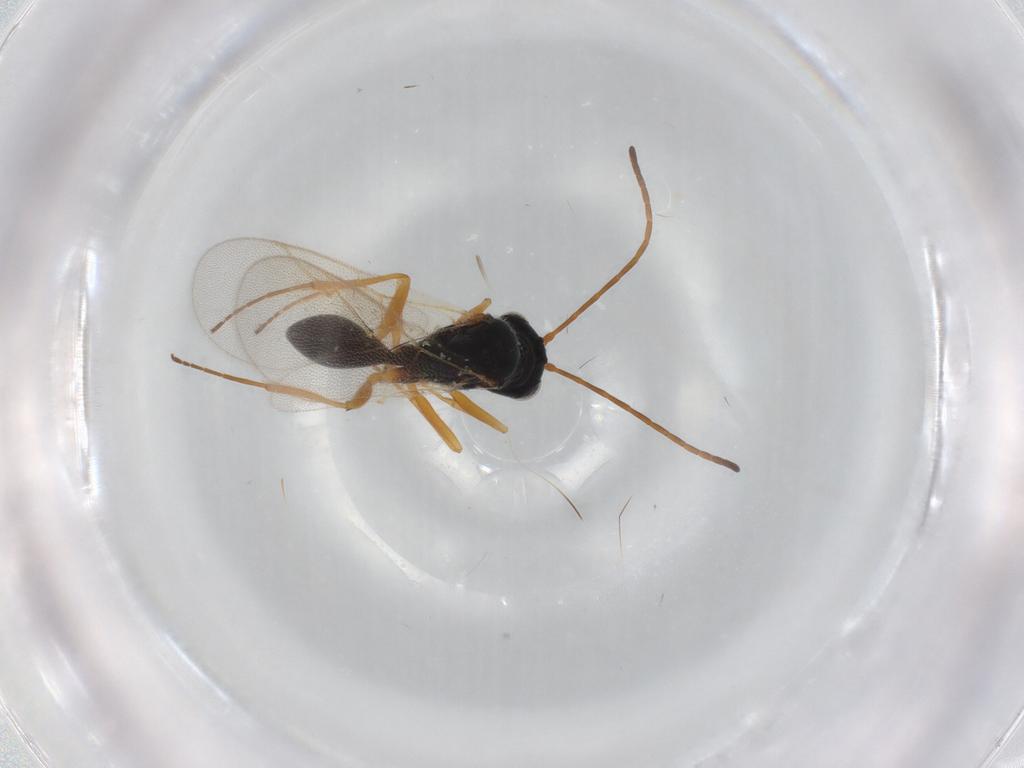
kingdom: Animalia
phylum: Arthropoda
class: Insecta
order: Hymenoptera
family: Figitidae
